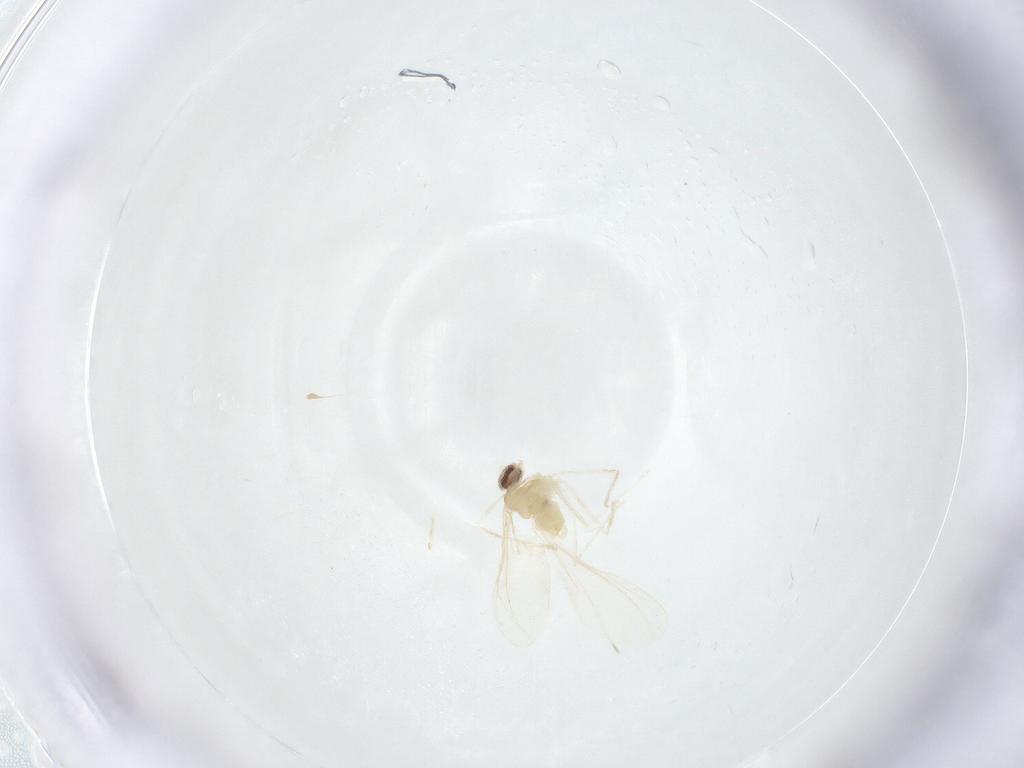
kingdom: Animalia
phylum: Arthropoda
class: Insecta
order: Diptera
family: Cecidomyiidae
